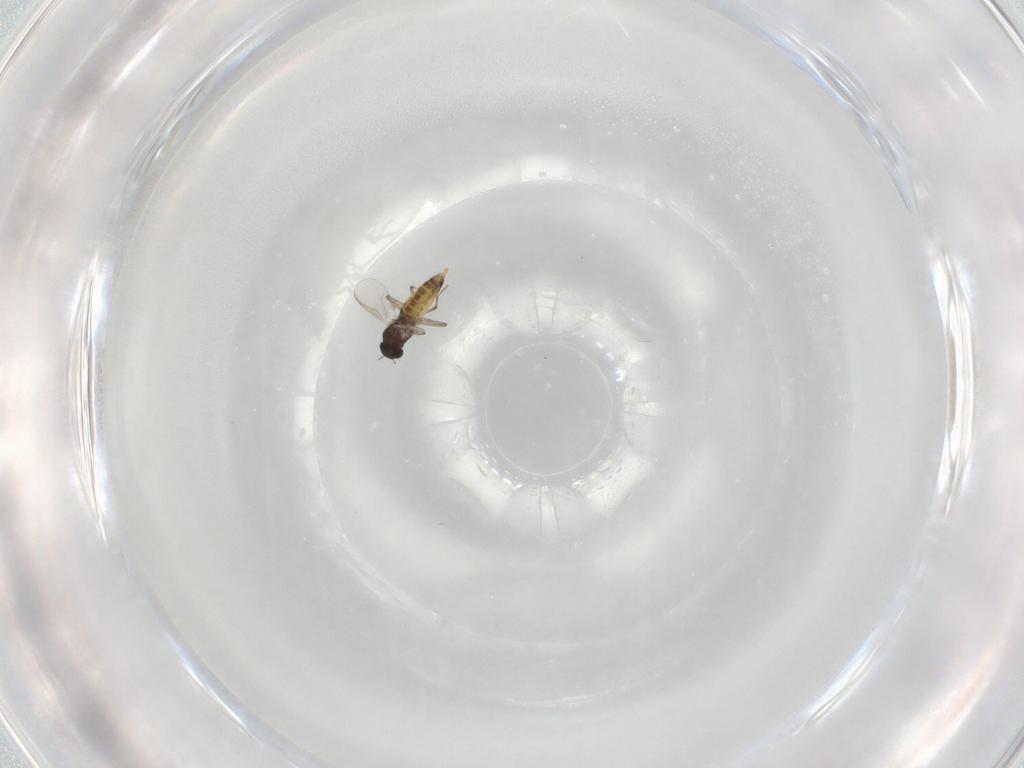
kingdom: Animalia
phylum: Arthropoda
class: Insecta
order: Diptera
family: Chironomidae
